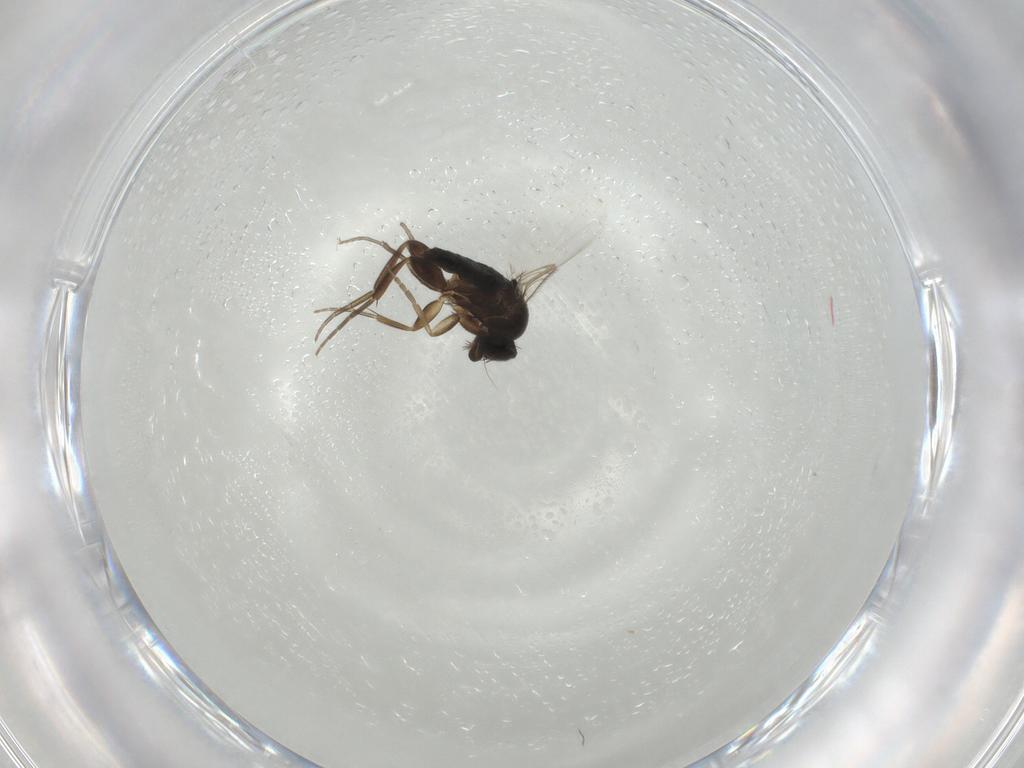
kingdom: Animalia
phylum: Arthropoda
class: Insecta
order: Diptera
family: Phoridae
